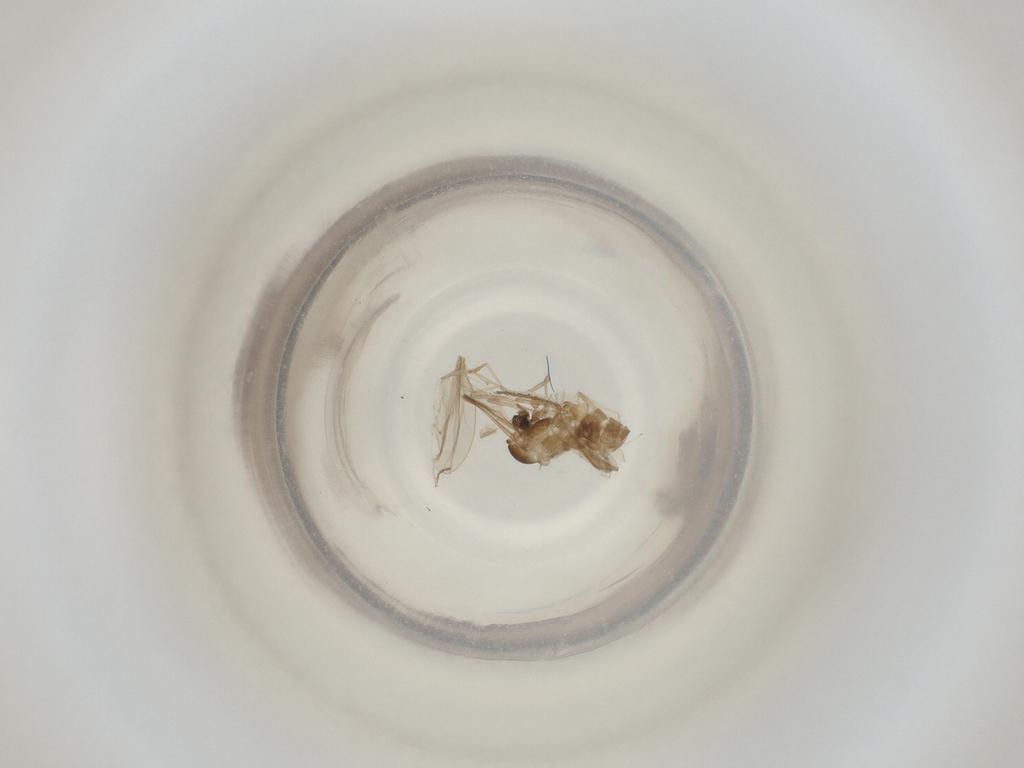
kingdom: Animalia
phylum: Arthropoda
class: Insecta
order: Diptera
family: Cecidomyiidae
